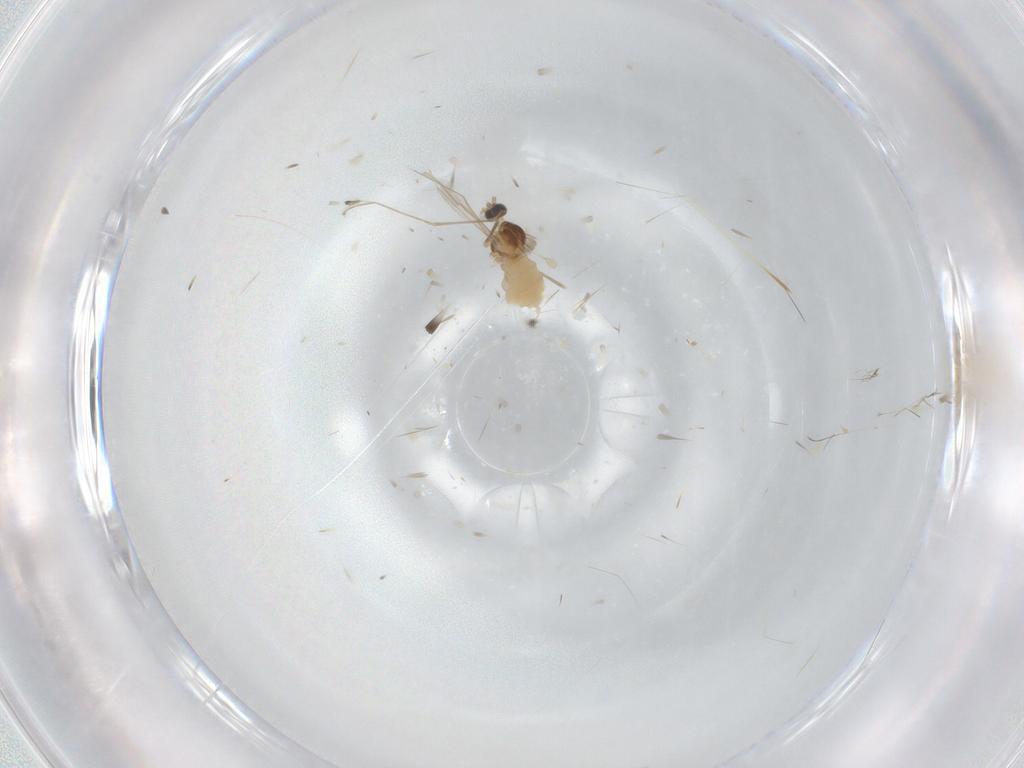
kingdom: Animalia
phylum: Arthropoda
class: Insecta
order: Diptera
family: Cecidomyiidae
